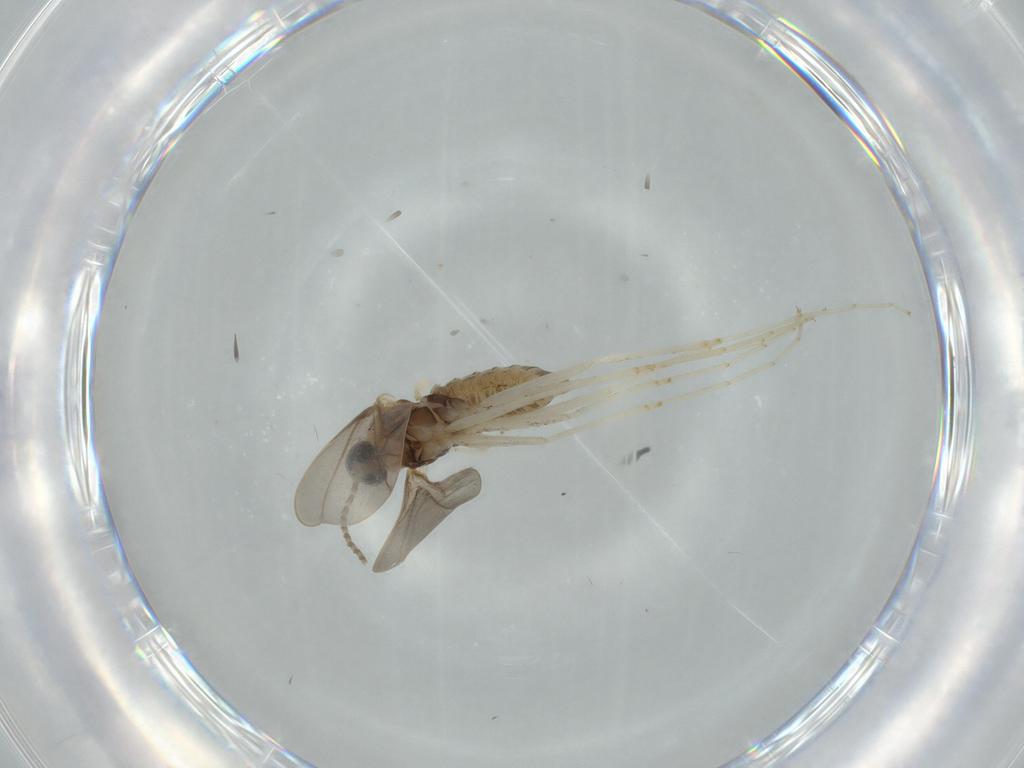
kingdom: Animalia
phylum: Arthropoda
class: Insecta
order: Diptera
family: Cecidomyiidae
